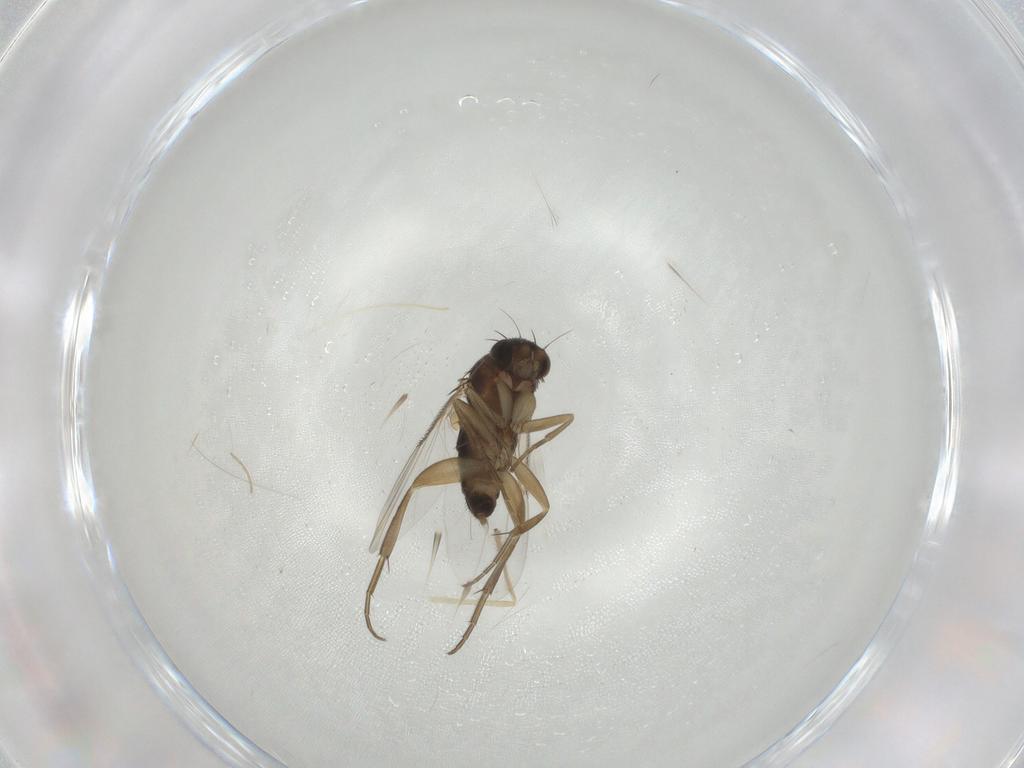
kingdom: Animalia
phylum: Arthropoda
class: Insecta
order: Diptera
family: Phoridae
